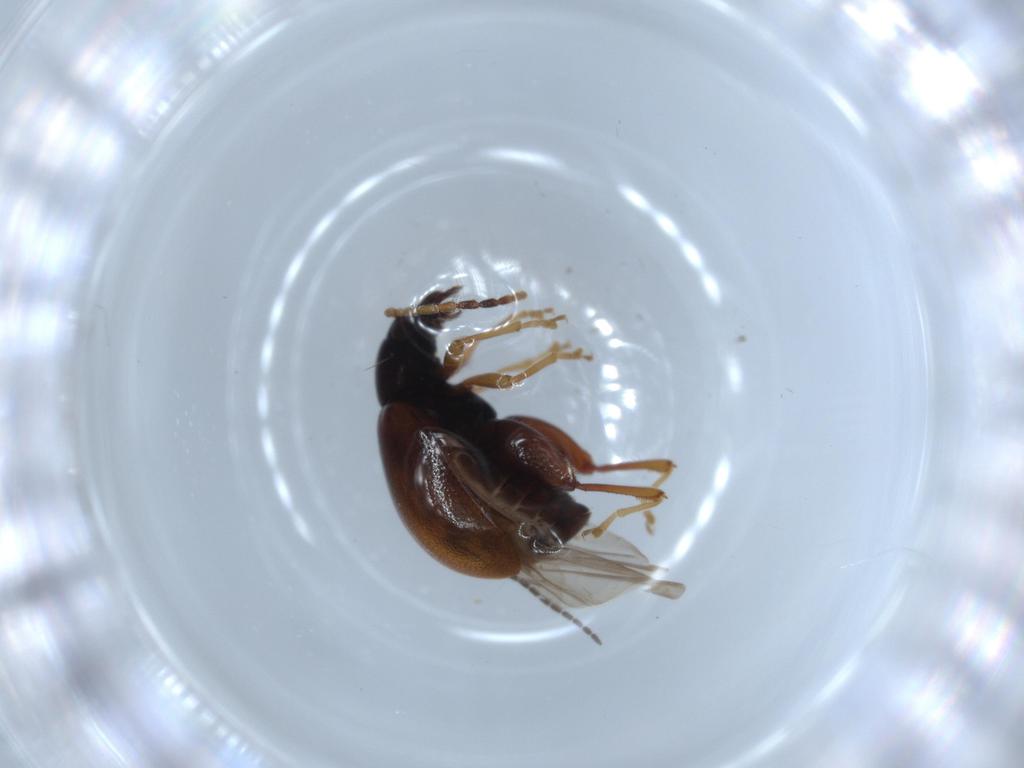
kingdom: Animalia
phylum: Arthropoda
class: Insecta
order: Coleoptera
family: Chrysomelidae
